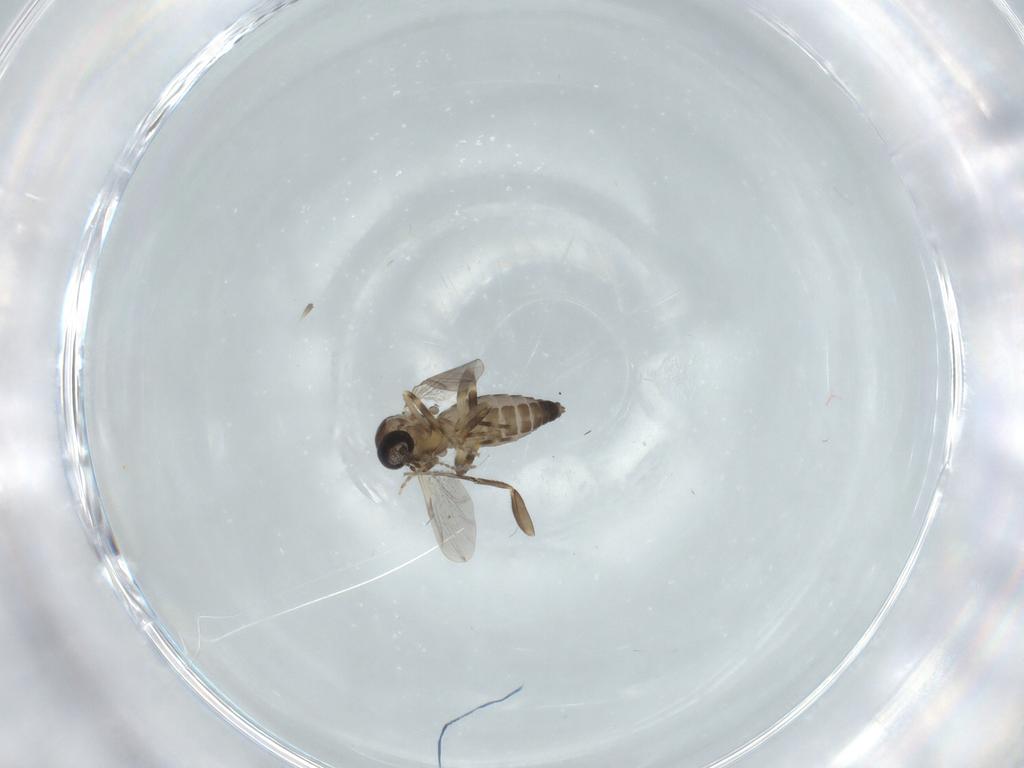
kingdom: Animalia
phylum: Arthropoda
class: Insecta
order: Diptera
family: Ceratopogonidae
